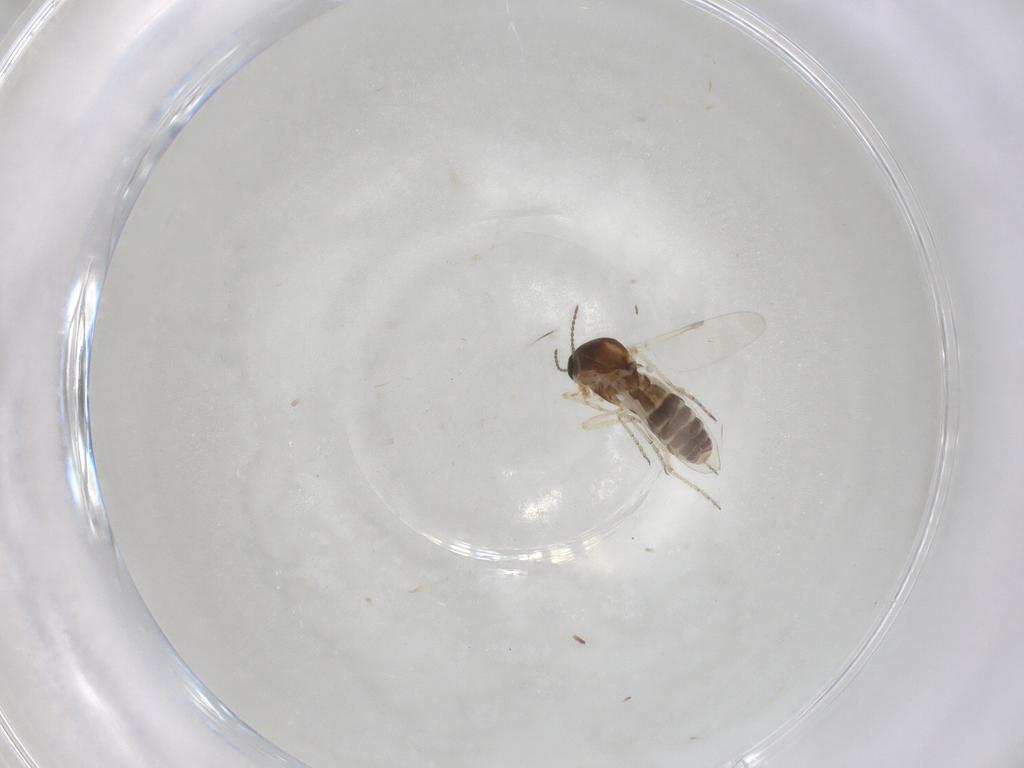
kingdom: Animalia
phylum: Arthropoda
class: Insecta
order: Diptera
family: Ceratopogonidae
